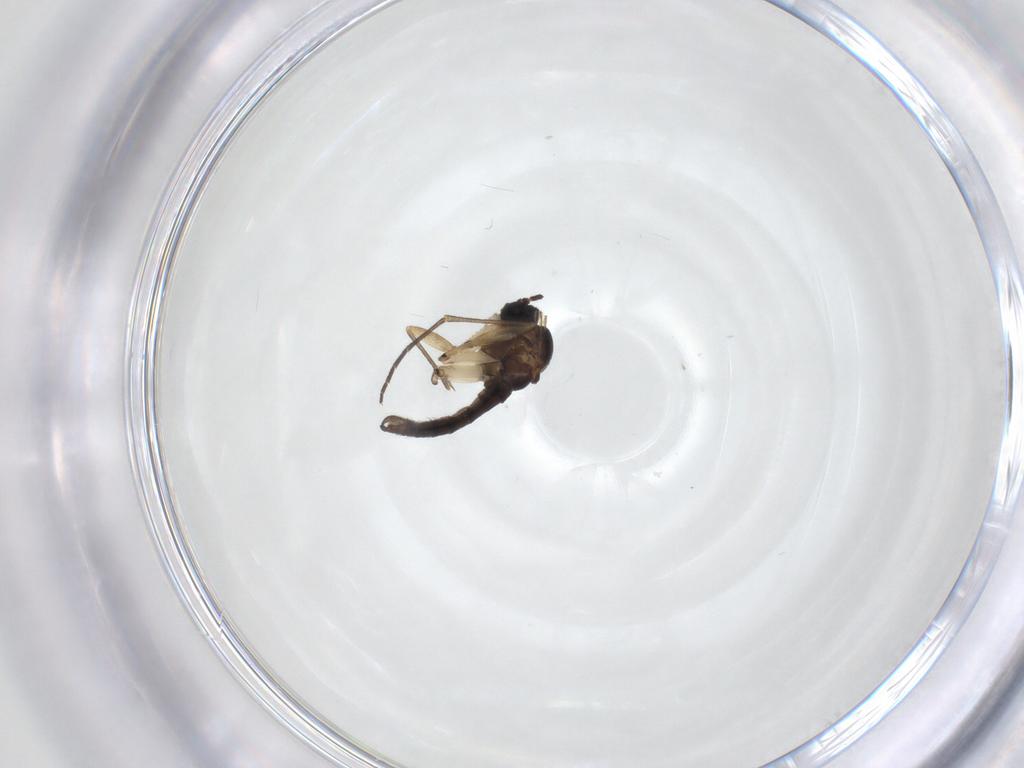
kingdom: Animalia
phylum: Arthropoda
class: Insecta
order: Diptera
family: Sciaridae
